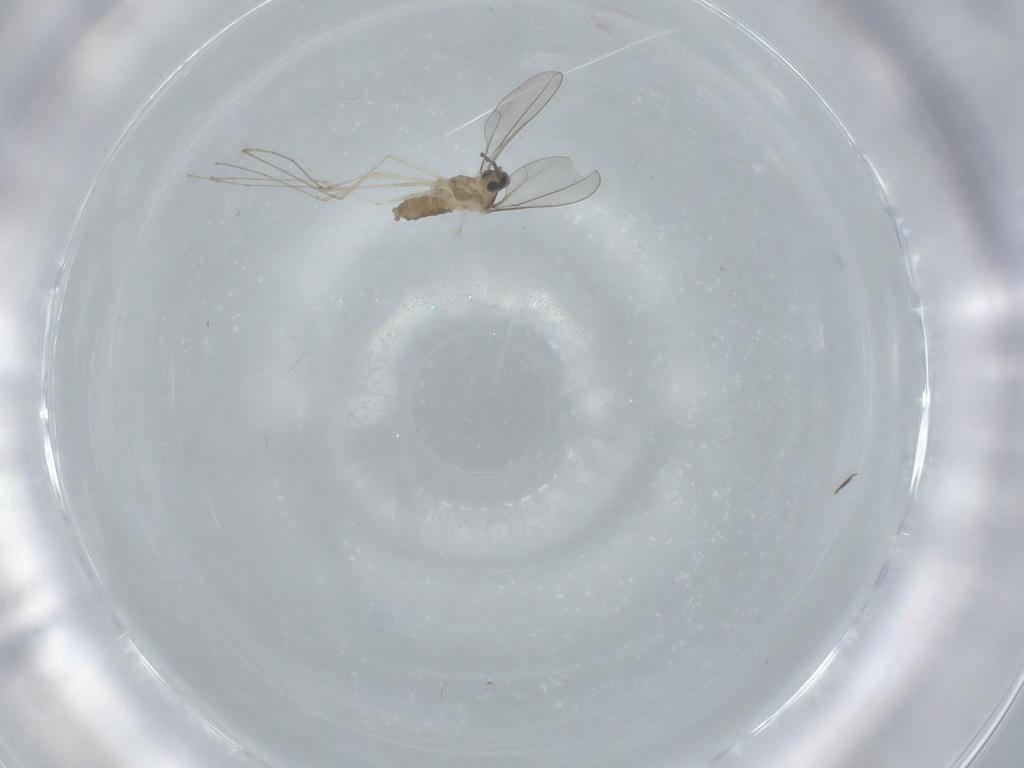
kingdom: Animalia
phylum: Arthropoda
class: Insecta
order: Diptera
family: Cecidomyiidae
